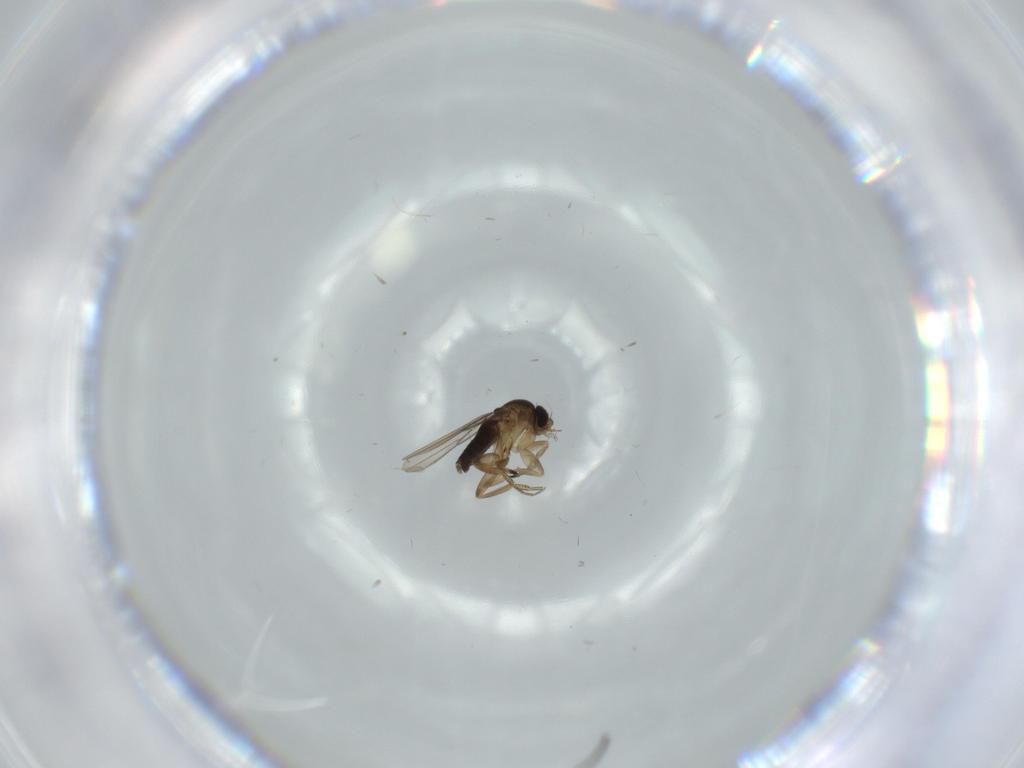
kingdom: Animalia
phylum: Arthropoda
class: Insecta
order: Diptera
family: Phoridae
